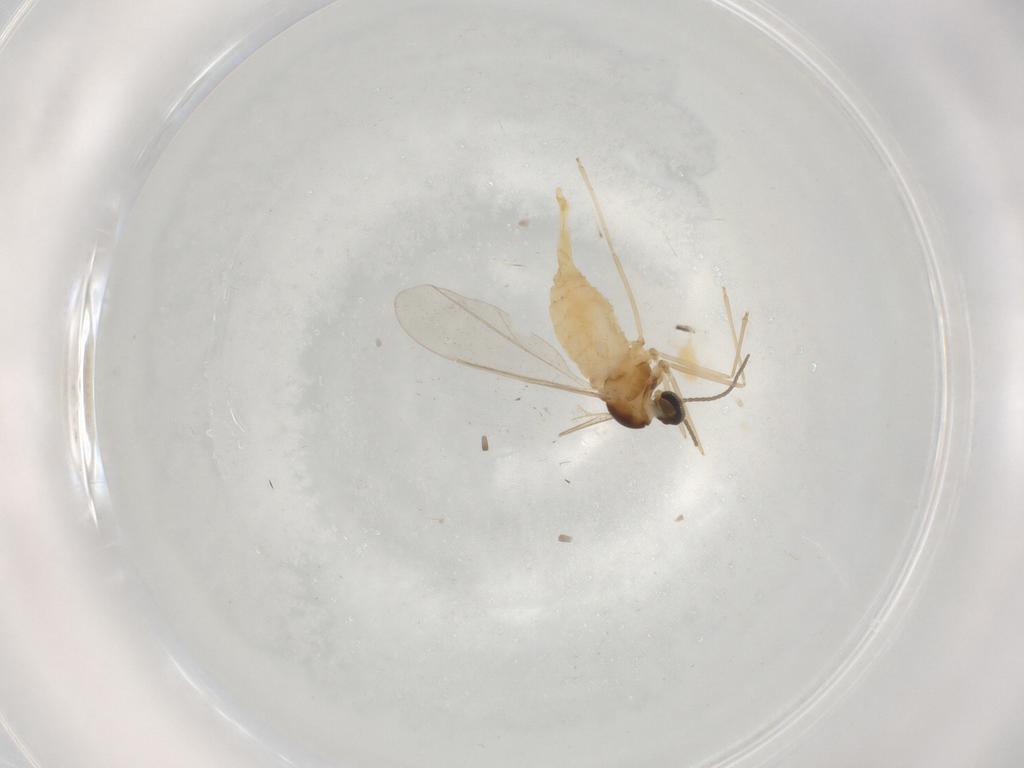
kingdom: Animalia
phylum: Arthropoda
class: Insecta
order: Diptera
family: Cecidomyiidae
